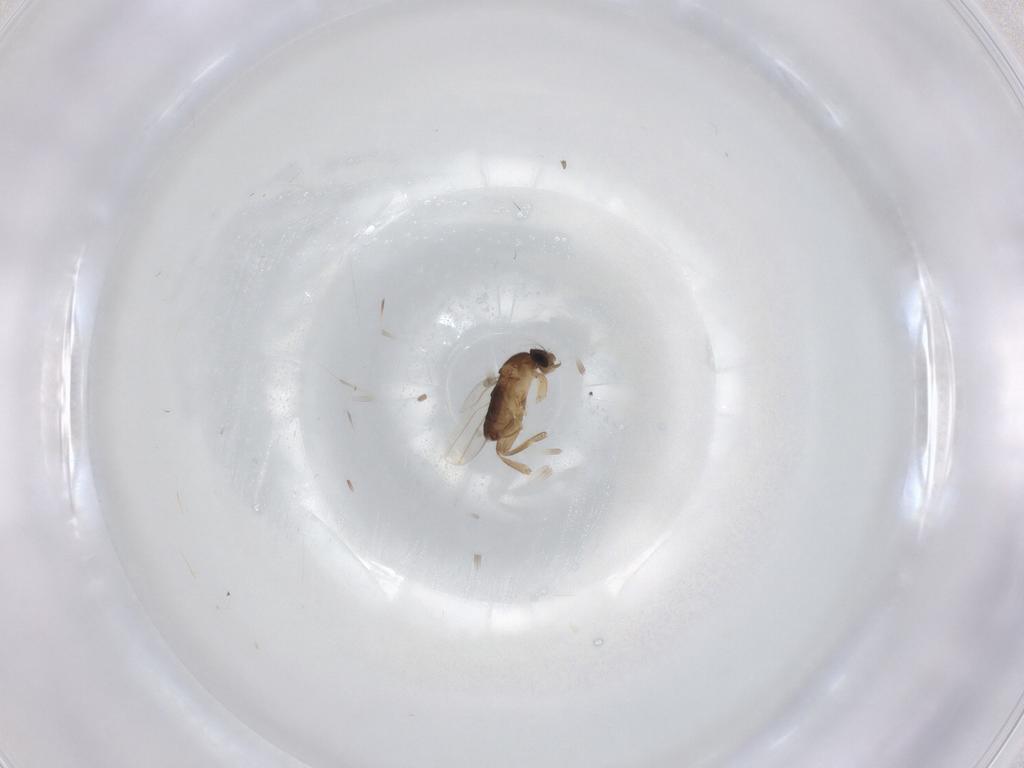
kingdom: Animalia
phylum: Arthropoda
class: Insecta
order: Diptera
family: Phoridae
